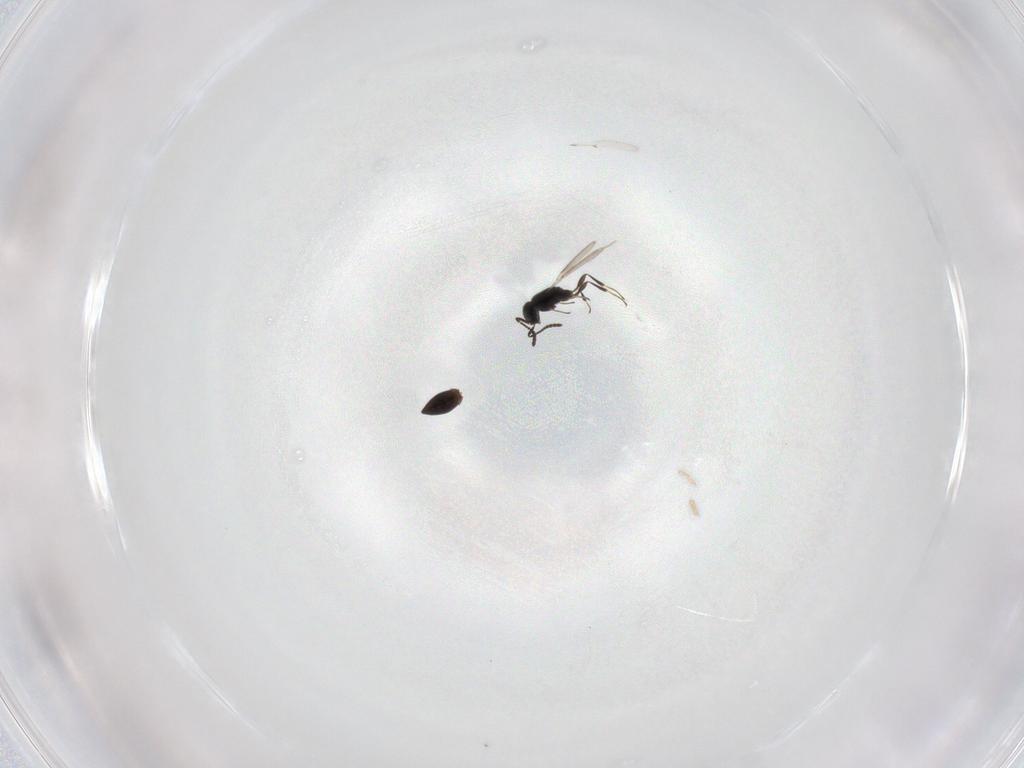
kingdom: Animalia
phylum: Arthropoda
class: Insecta
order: Hymenoptera
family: Scelionidae
